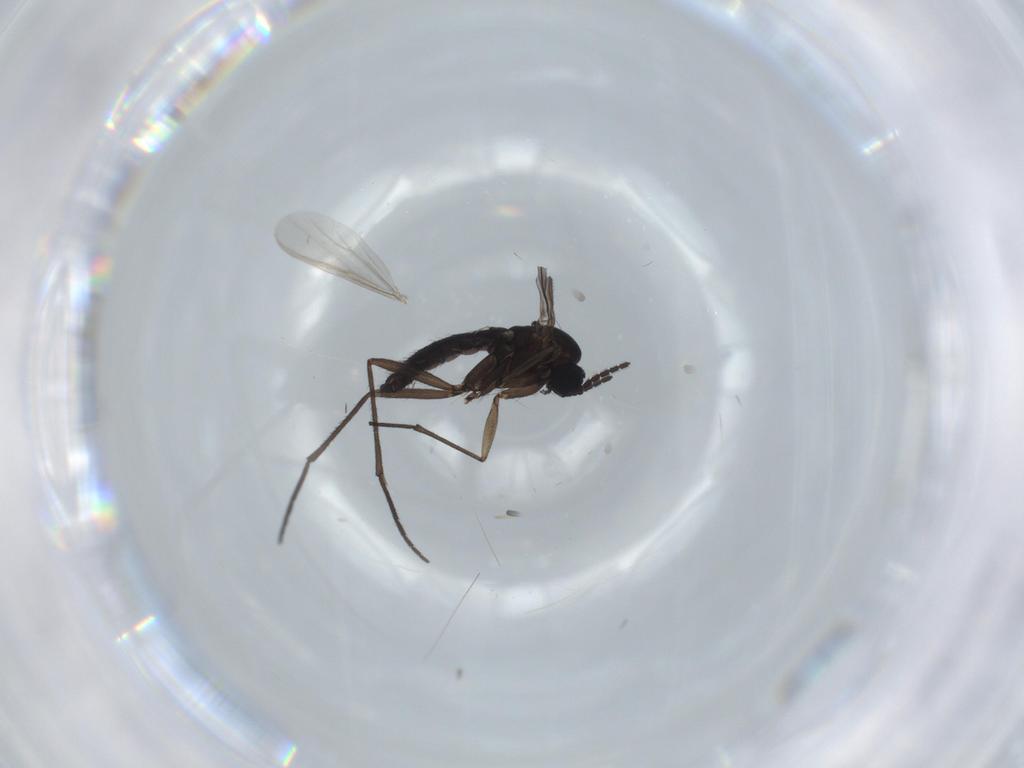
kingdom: Animalia
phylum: Arthropoda
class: Insecta
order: Diptera
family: Sciaridae
